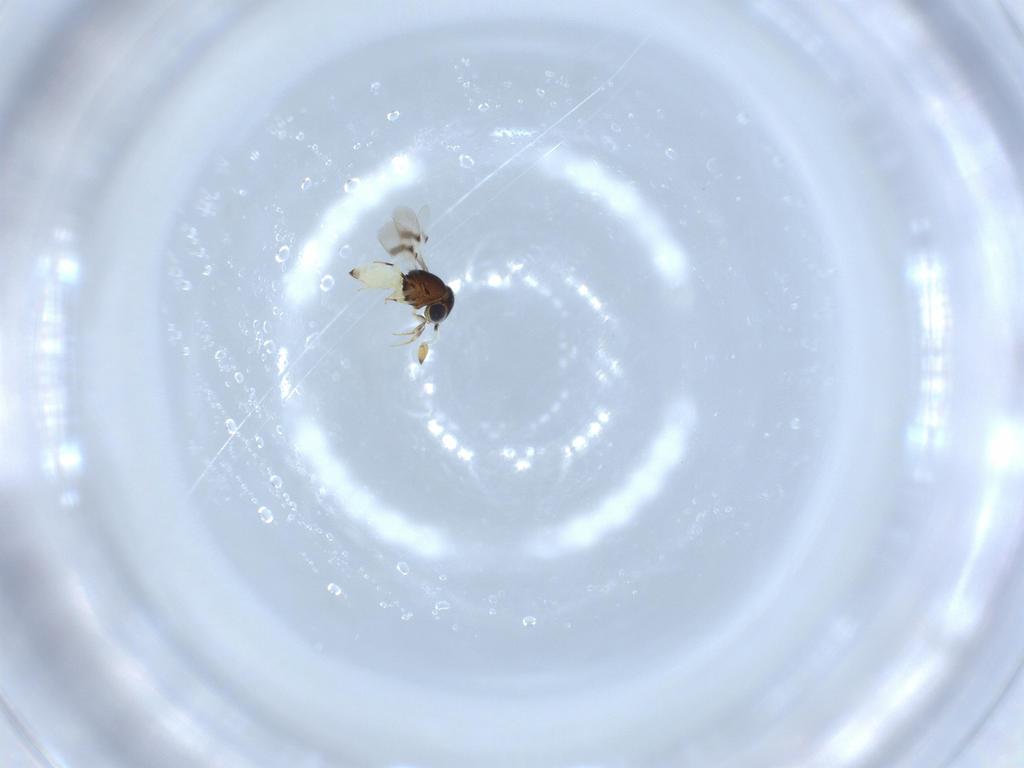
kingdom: Animalia
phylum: Arthropoda
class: Insecta
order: Hymenoptera
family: Scelionidae
